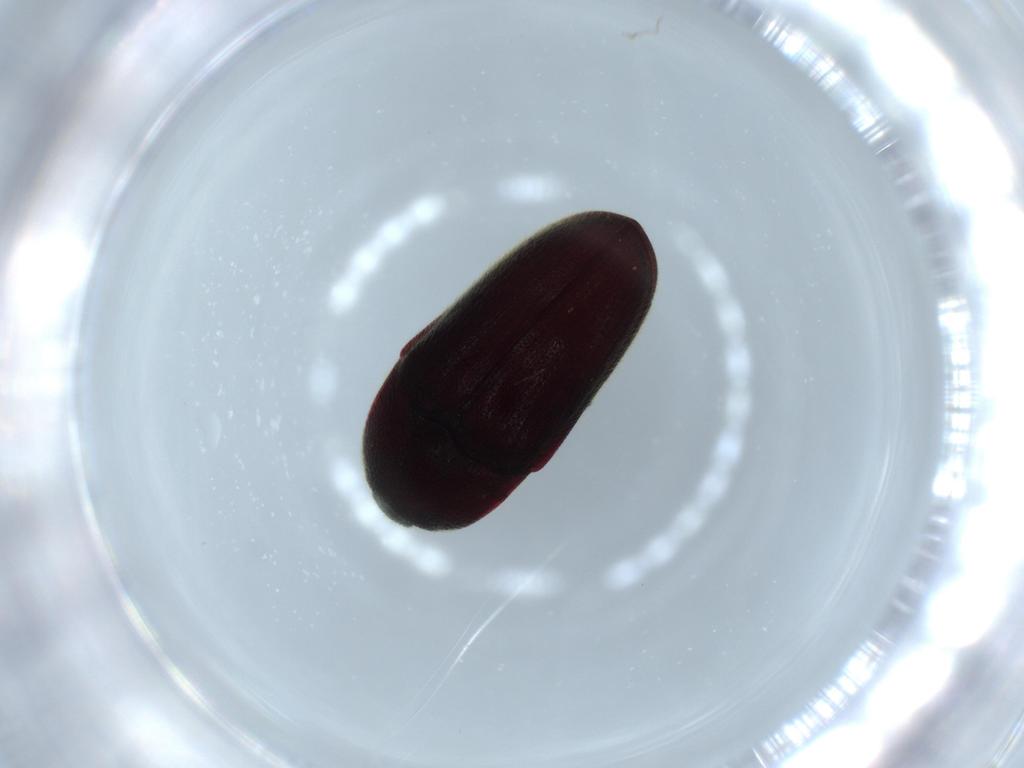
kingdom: Animalia
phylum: Arthropoda
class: Insecta
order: Coleoptera
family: Throscidae
